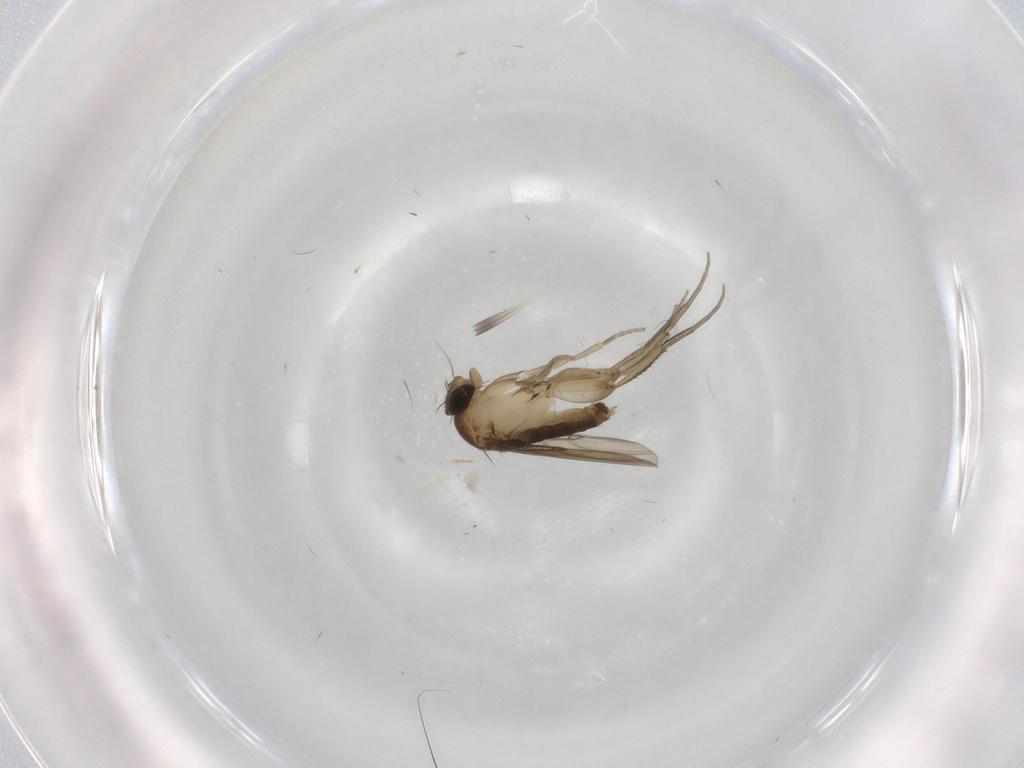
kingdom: Animalia
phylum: Arthropoda
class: Insecta
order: Diptera
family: Phoridae
